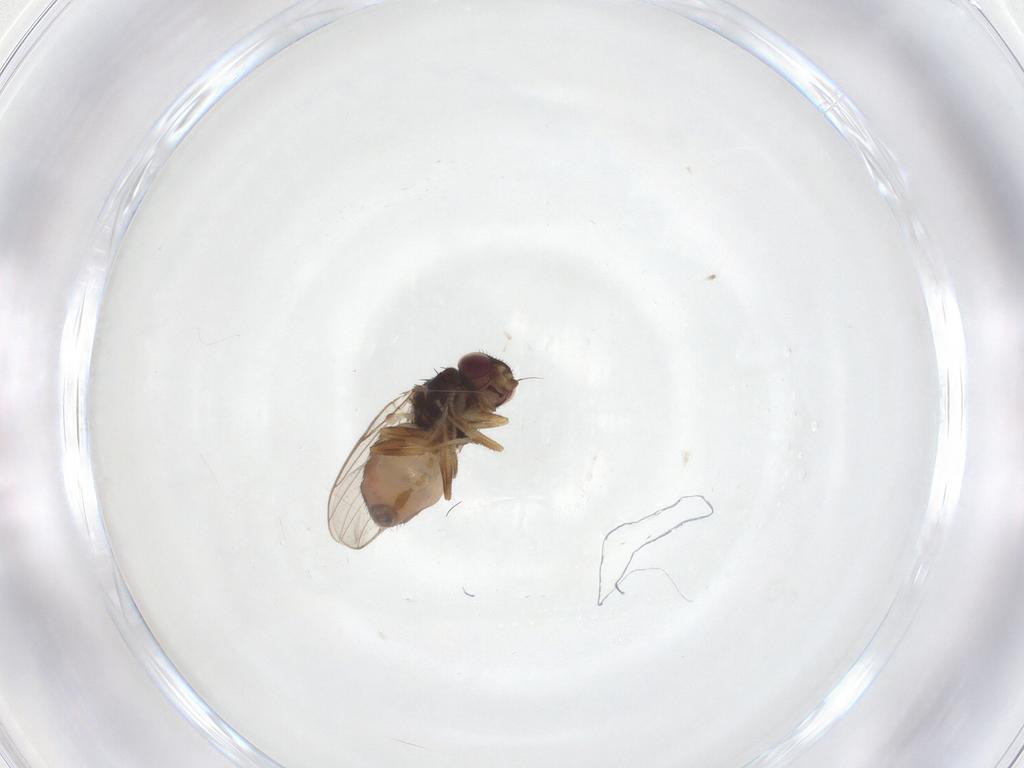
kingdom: Animalia
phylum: Arthropoda
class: Insecta
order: Diptera
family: Chloropidae
